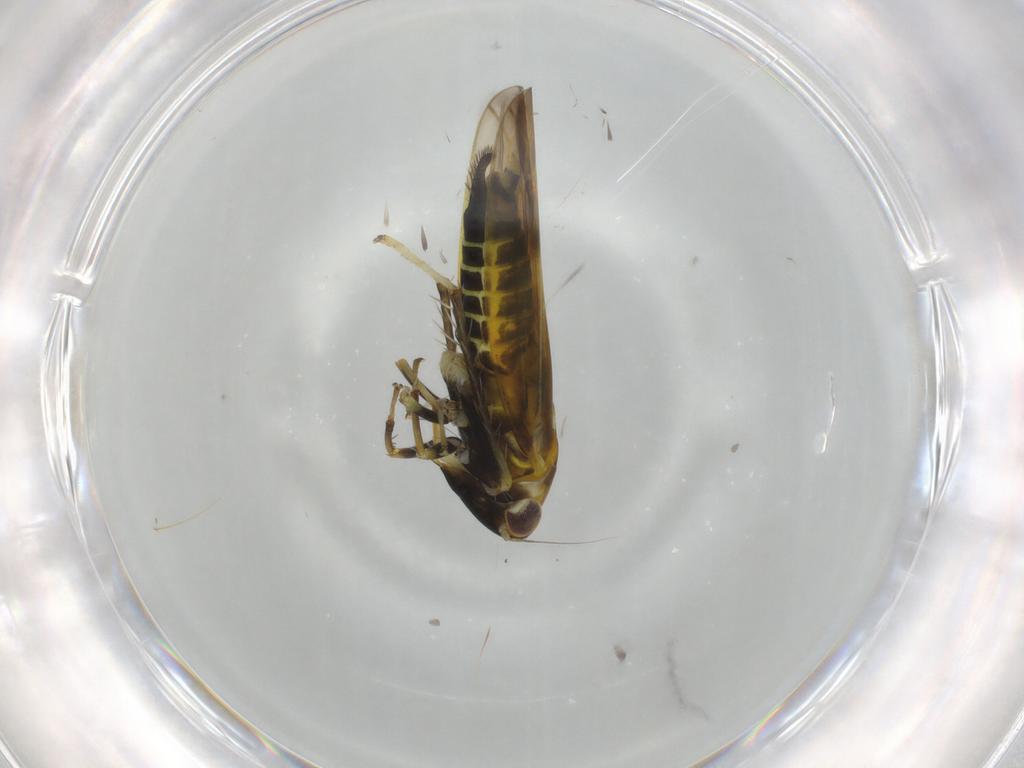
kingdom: Animalia
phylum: Arthropoda
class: Insecta
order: Hemiptera
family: Cicadellidae
